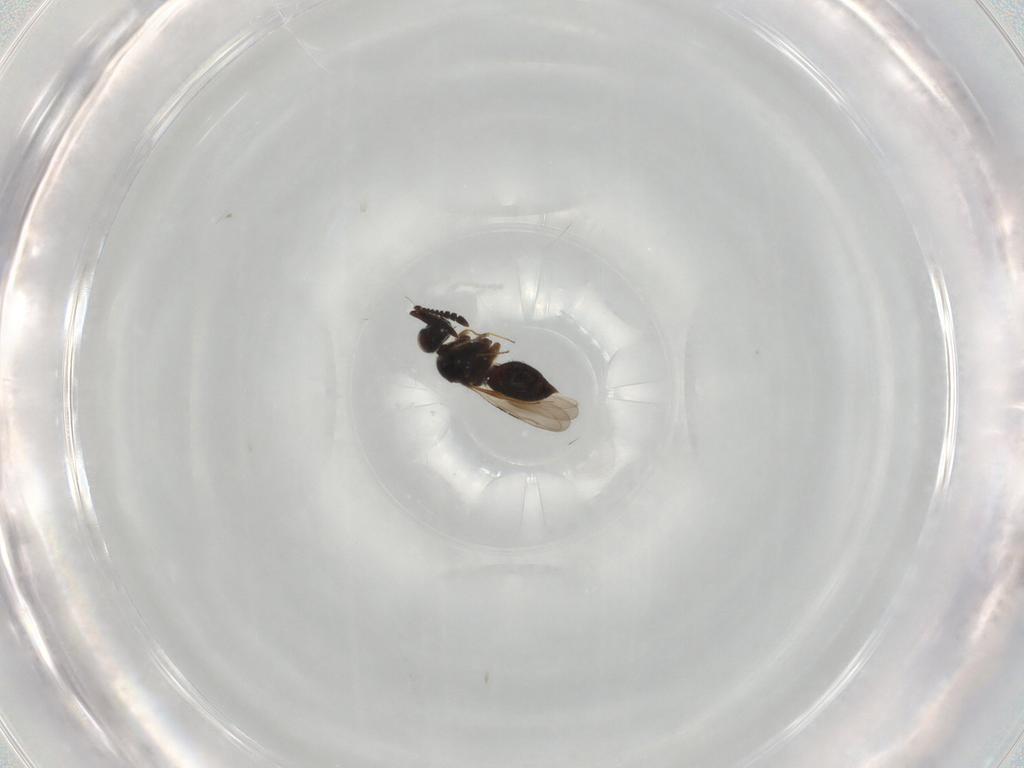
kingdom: Animalia
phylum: Arthropoda
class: Insecta
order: Hymenoptera
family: Ceraphronidae
